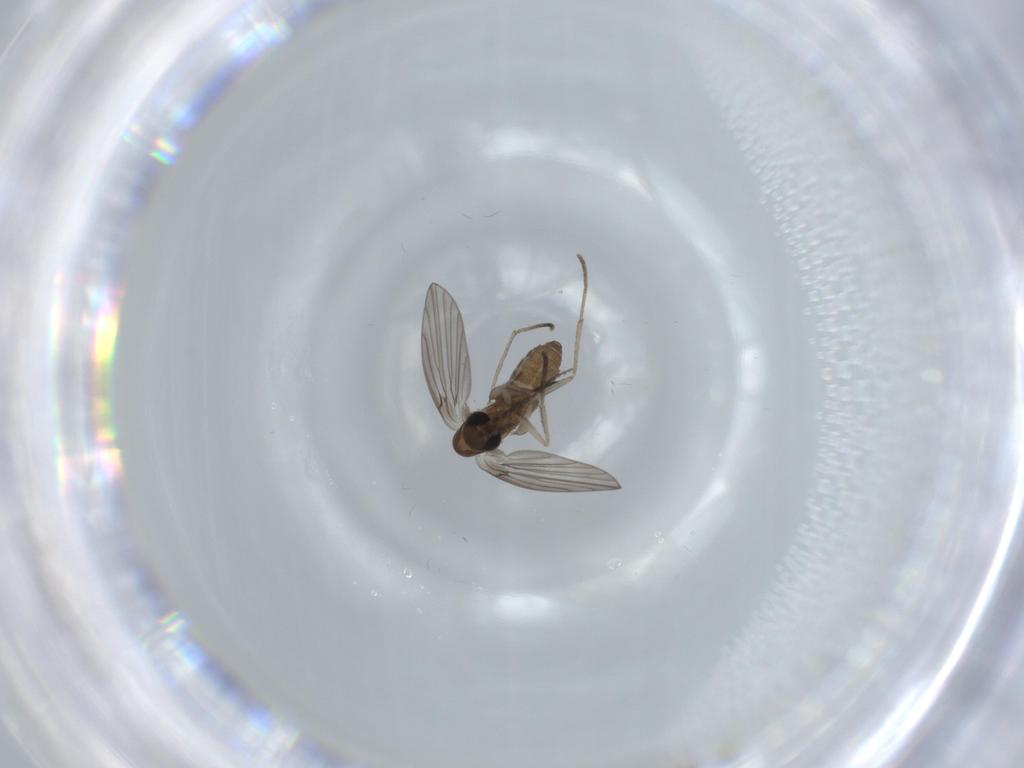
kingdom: Animalia
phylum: Arthropoda
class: Insecta
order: Diptera
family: Psychodidae
